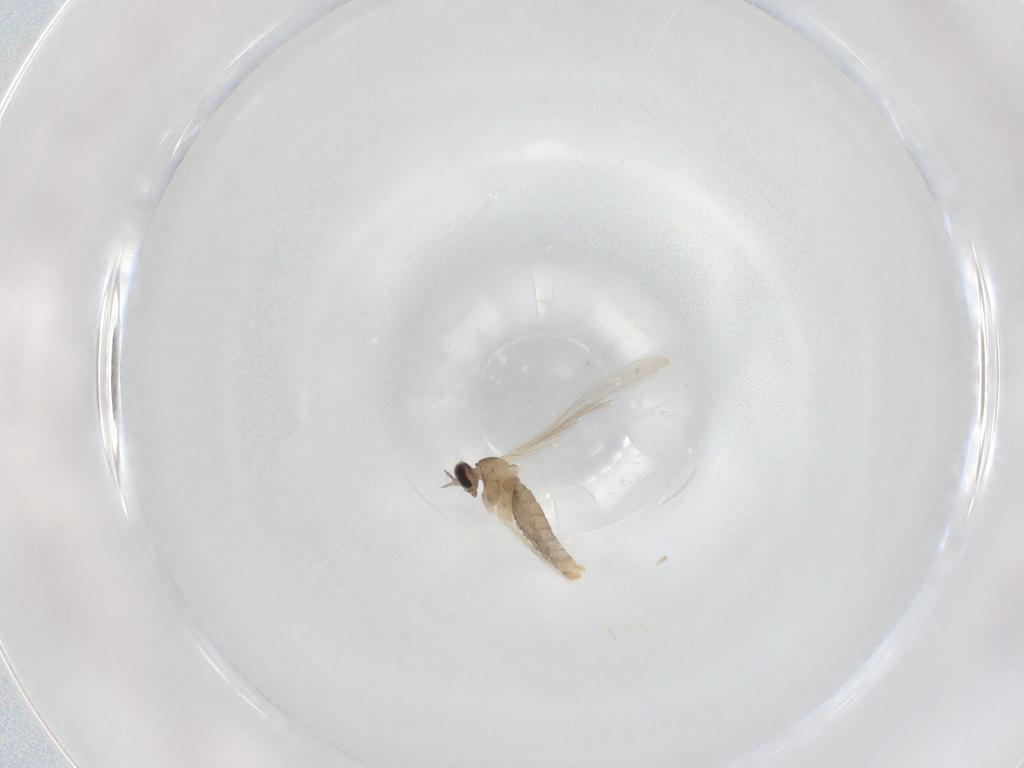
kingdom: Animalia
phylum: Arthropoda
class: Insecta
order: Diptera
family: Cecidomyiidae
